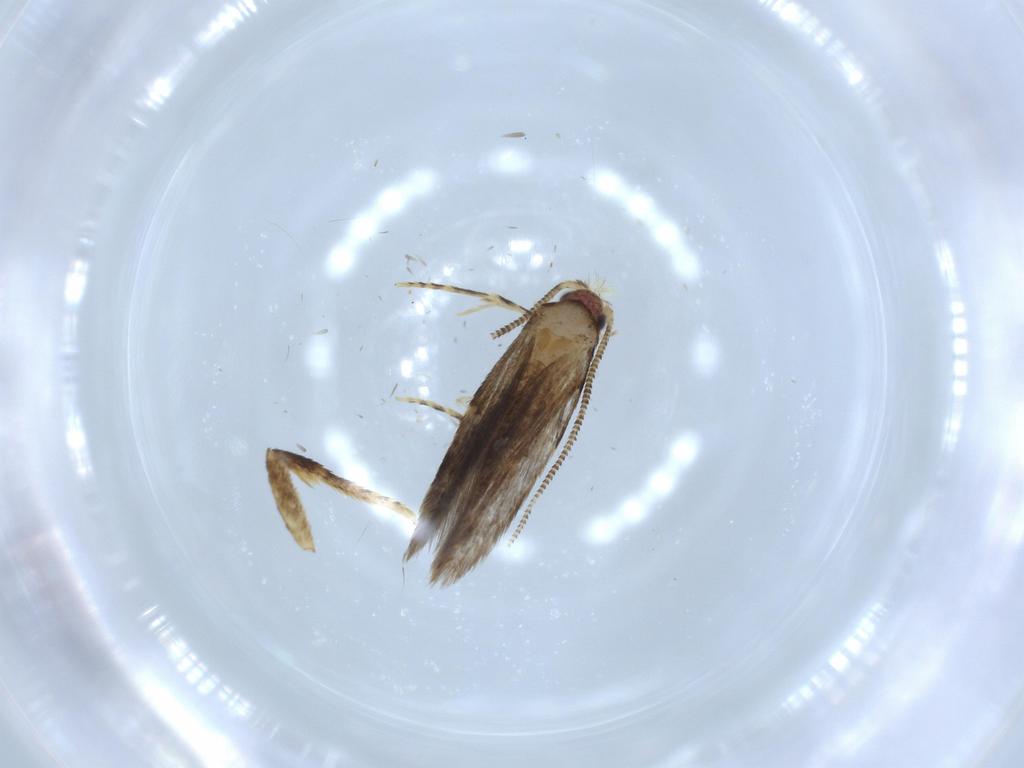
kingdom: Animalia
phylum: Arthropoda
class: Insecta
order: Lepidoptera
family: Tineidae
